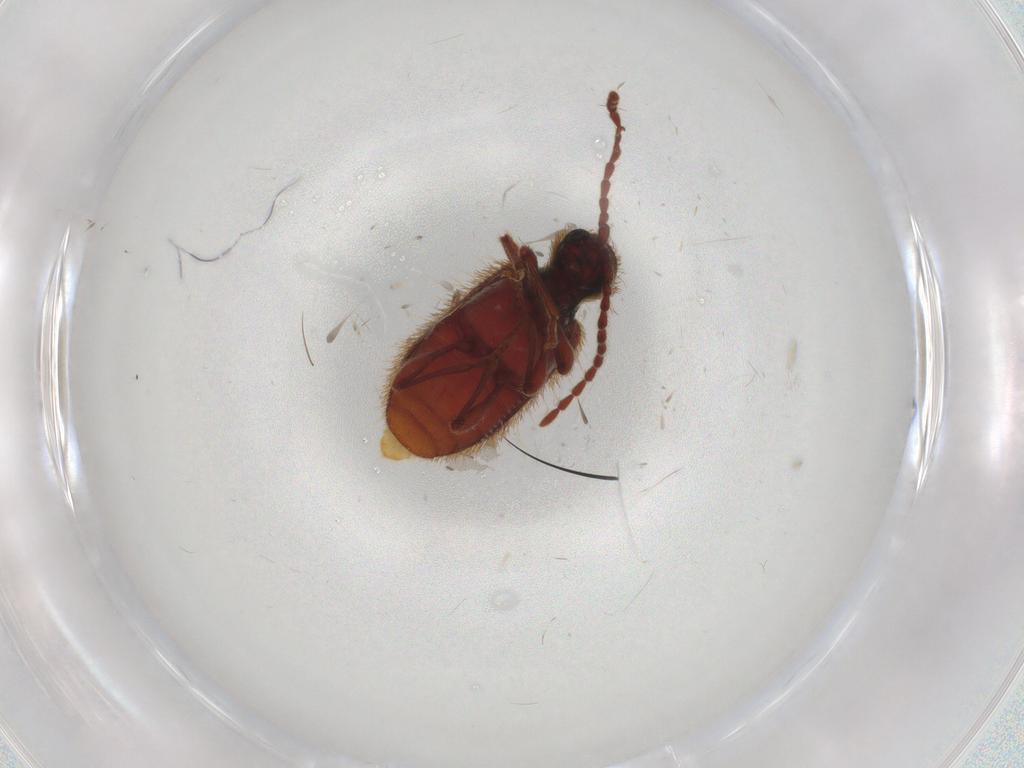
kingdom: Animalia
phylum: Arthropoda
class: Insecta
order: Coleoptera
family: Ptinidae
